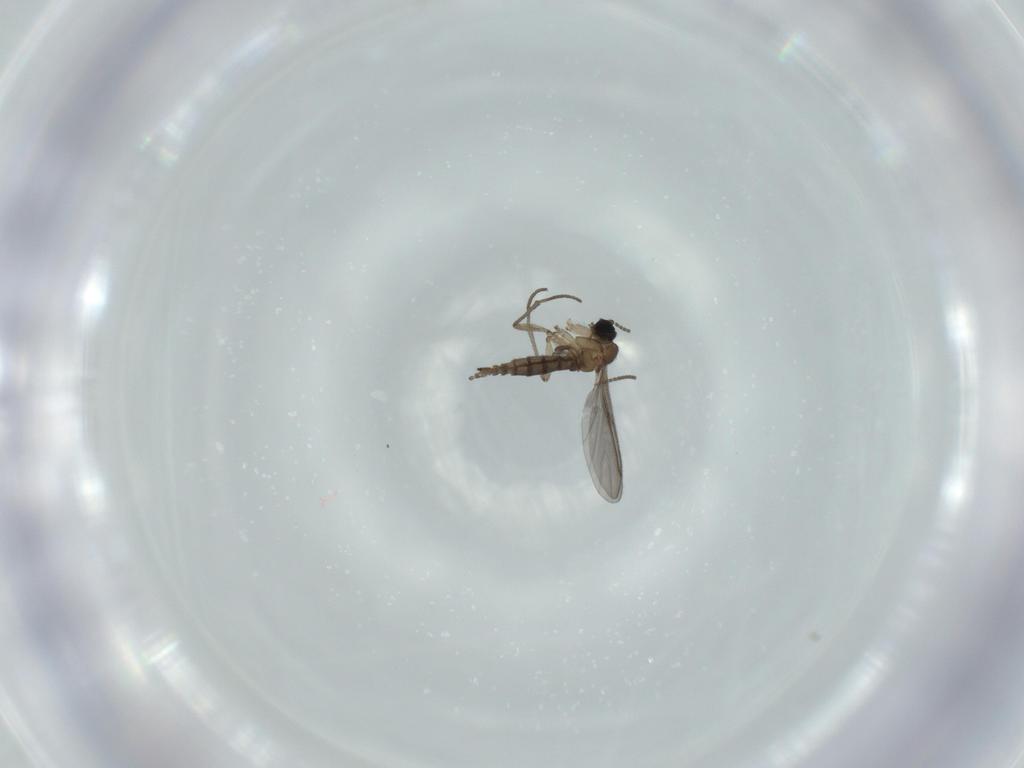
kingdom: Animalia
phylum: Arthropoda
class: Insecta
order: Diptera
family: Sciaridae
